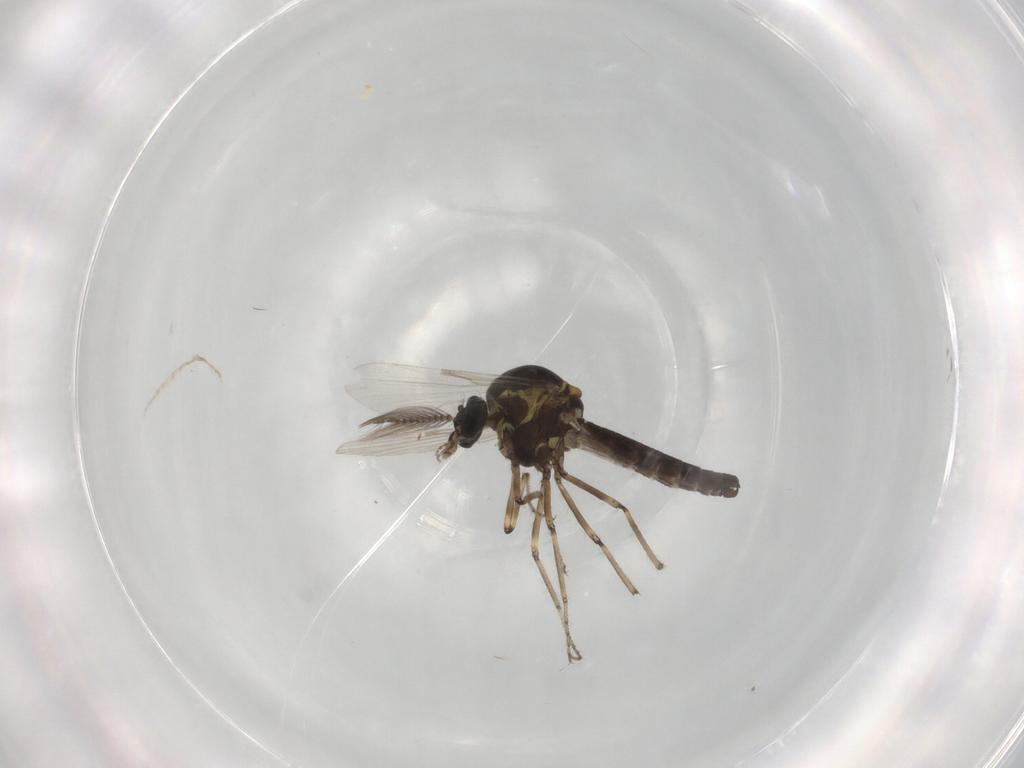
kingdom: Animalia
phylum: Arthropoda
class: Insecta
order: Diptera
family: Ceratopogonidae
